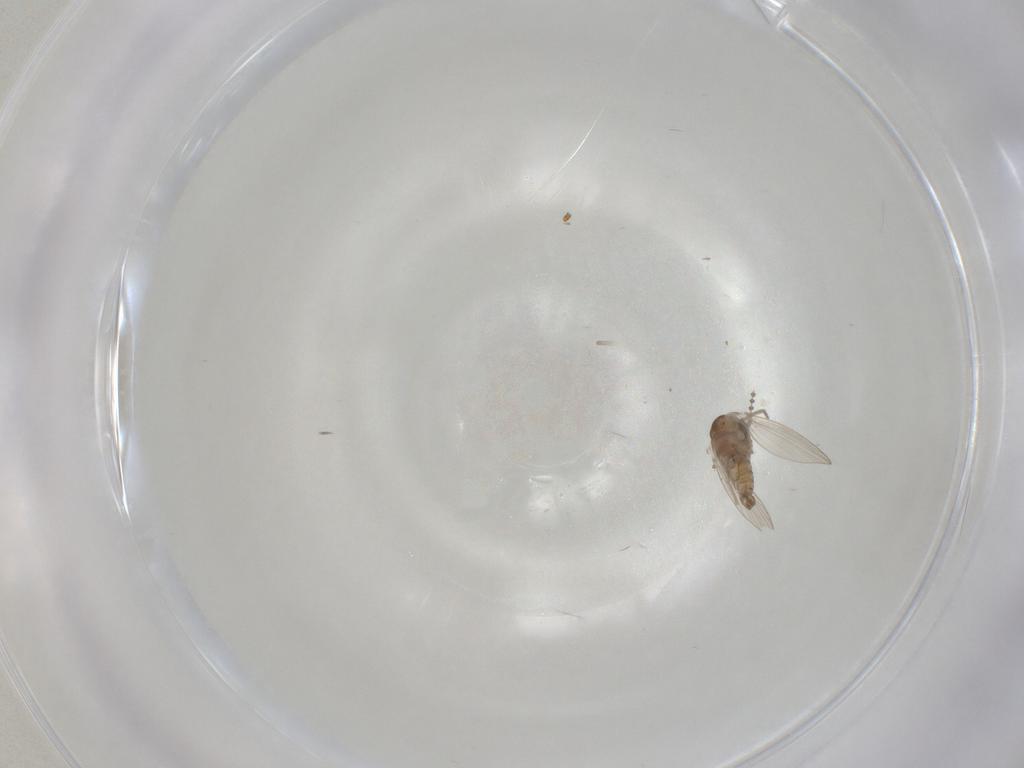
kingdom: Animalia
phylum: Arthropoda
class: Insecta
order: Diptera
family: Psychodidae
